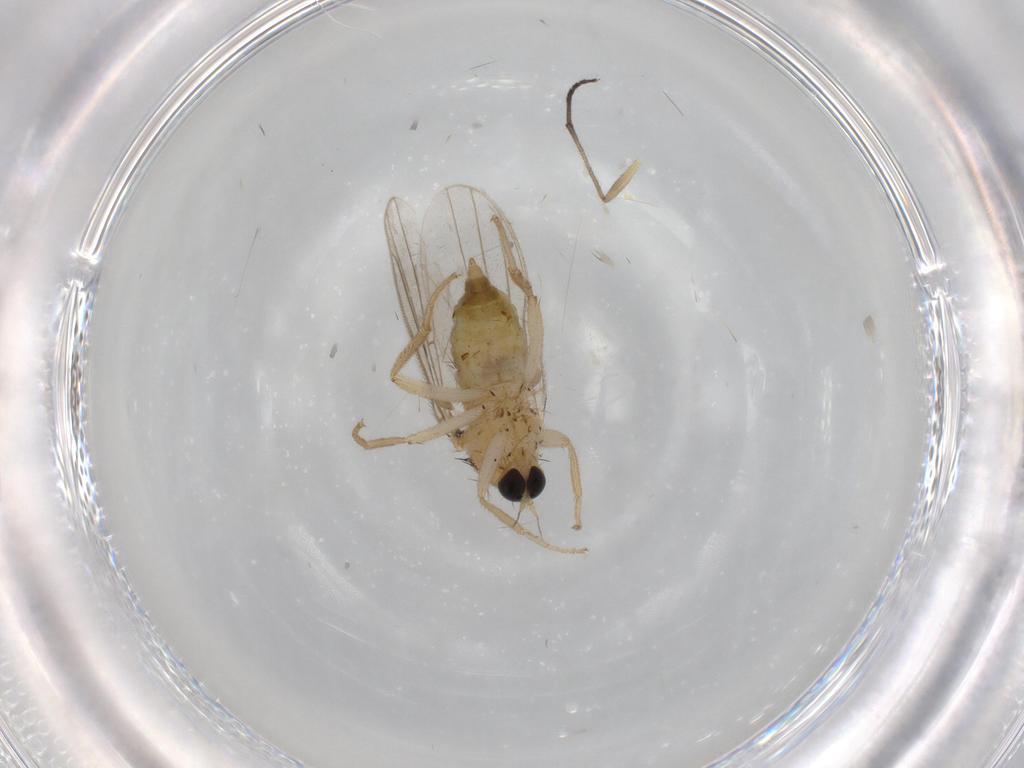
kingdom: Animalia
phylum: Arthropoda
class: Insecta
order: Diptera
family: Hybotidae
